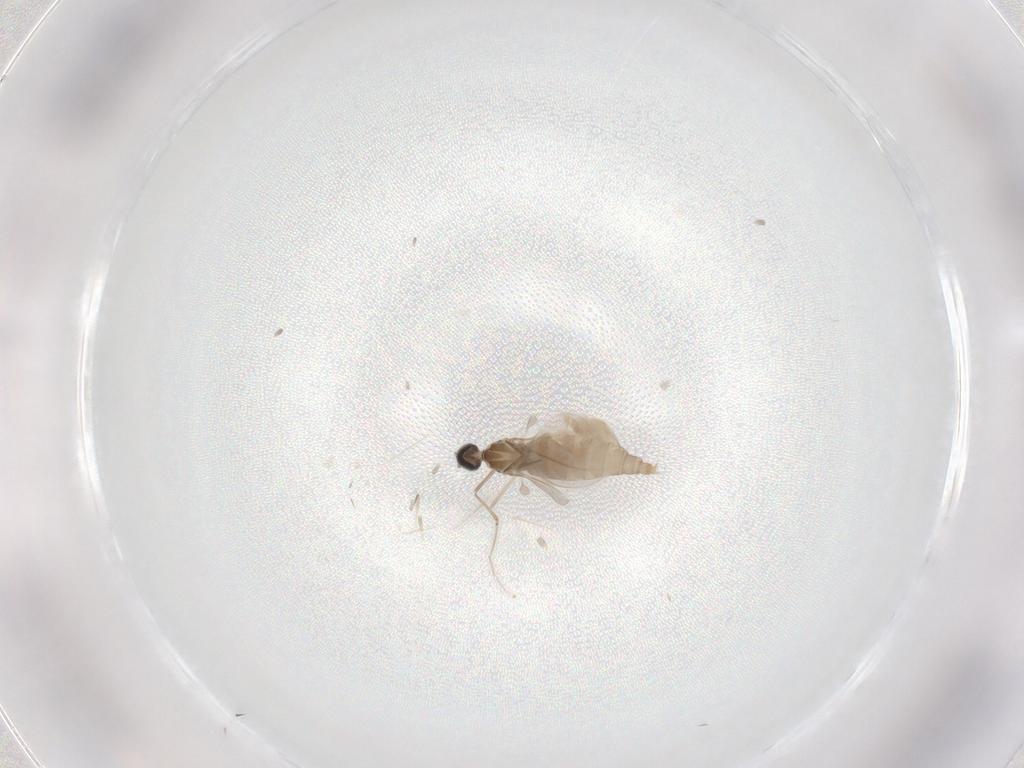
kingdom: Animalia
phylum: Arthropoda
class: Insecta
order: Diptera
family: Cecidomyiidae
